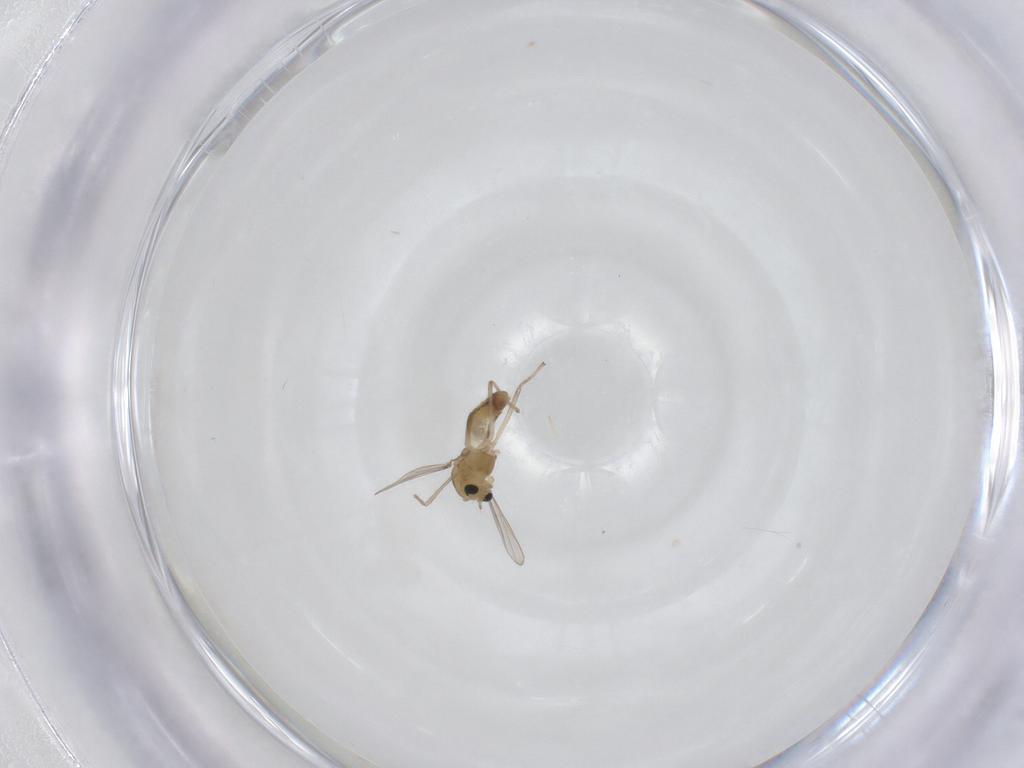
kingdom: Animalia
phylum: Arthropoda
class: Insecta
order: Diptera
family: Chironomidae
